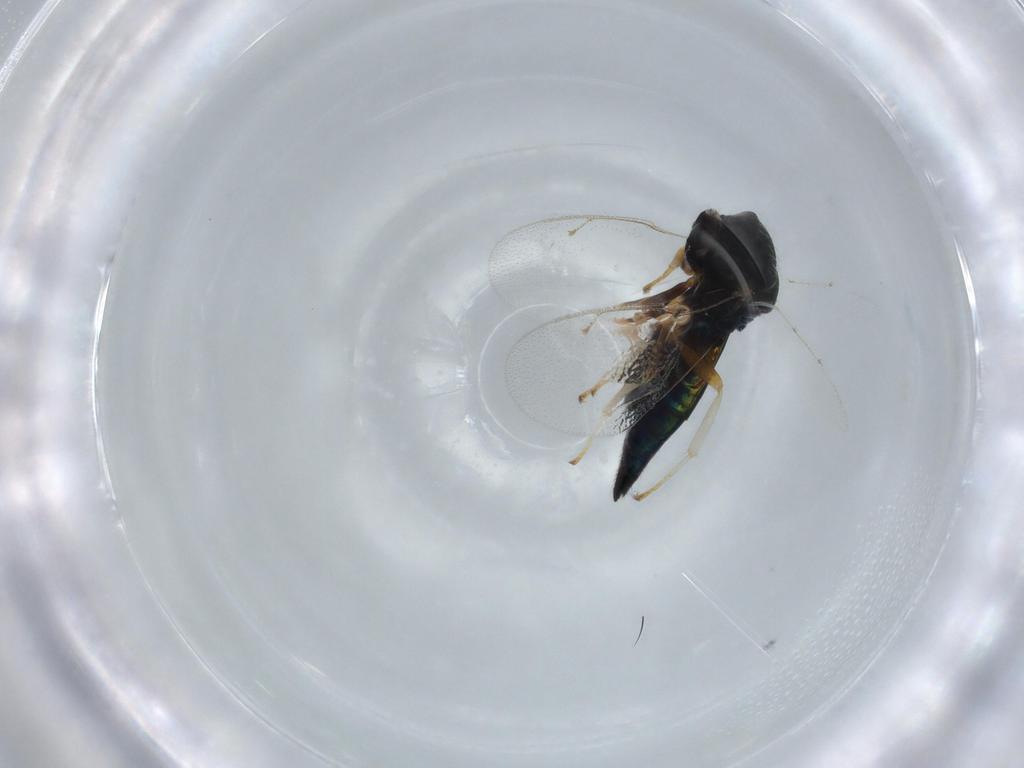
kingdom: Animalia
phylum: Arthropoda
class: Insecta
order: Hymenoptera
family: Pteromalidae
